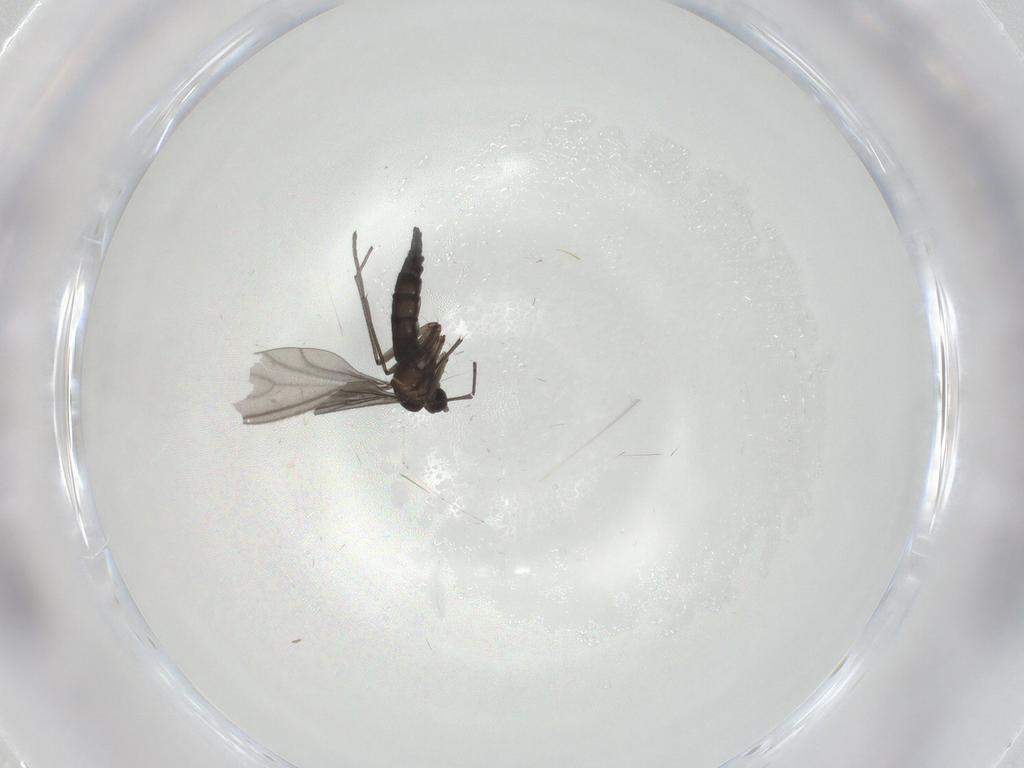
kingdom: Animalia
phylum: Arthropoda
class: Insecta
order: Diptera
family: Sciaridae
